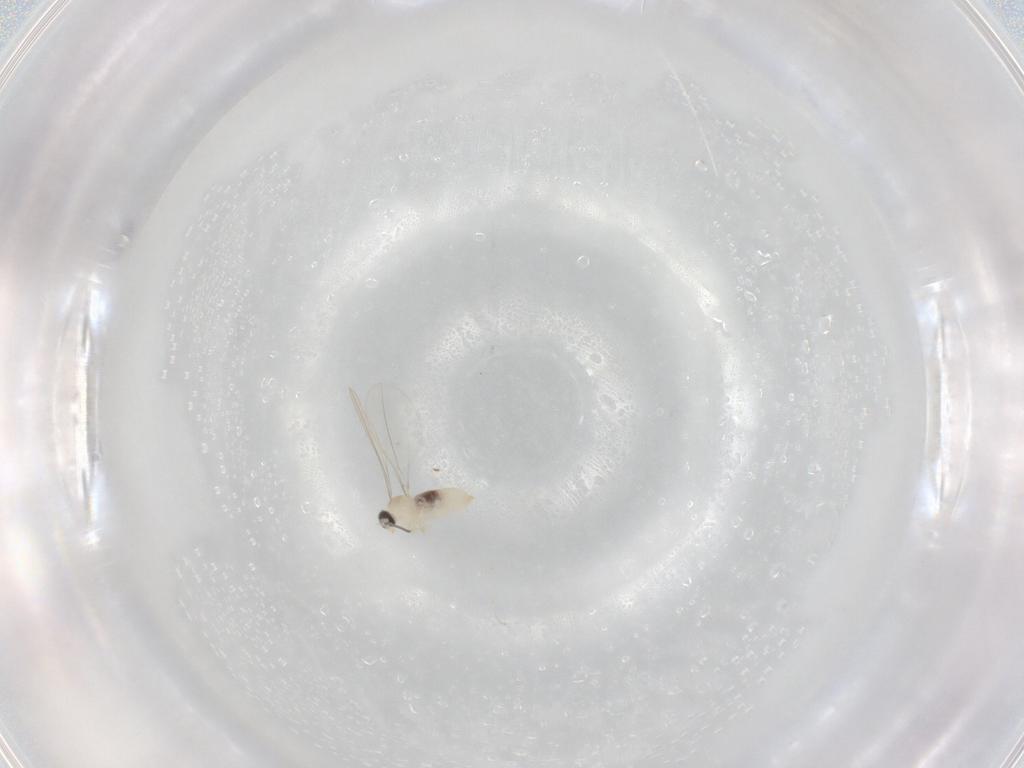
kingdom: Animalia
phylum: Arthropoda
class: Insecta
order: Diptera
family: Cecidomyiidae
